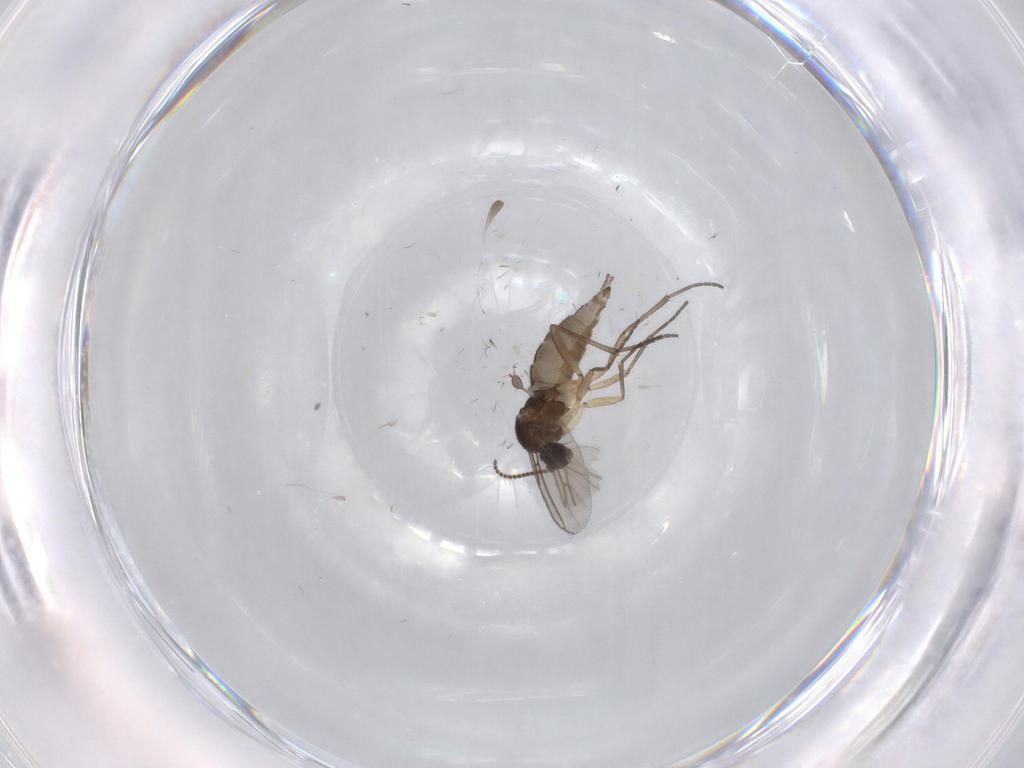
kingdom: Animalia
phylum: Arthropoda
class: Insecta
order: Diptera
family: Sciaridae
